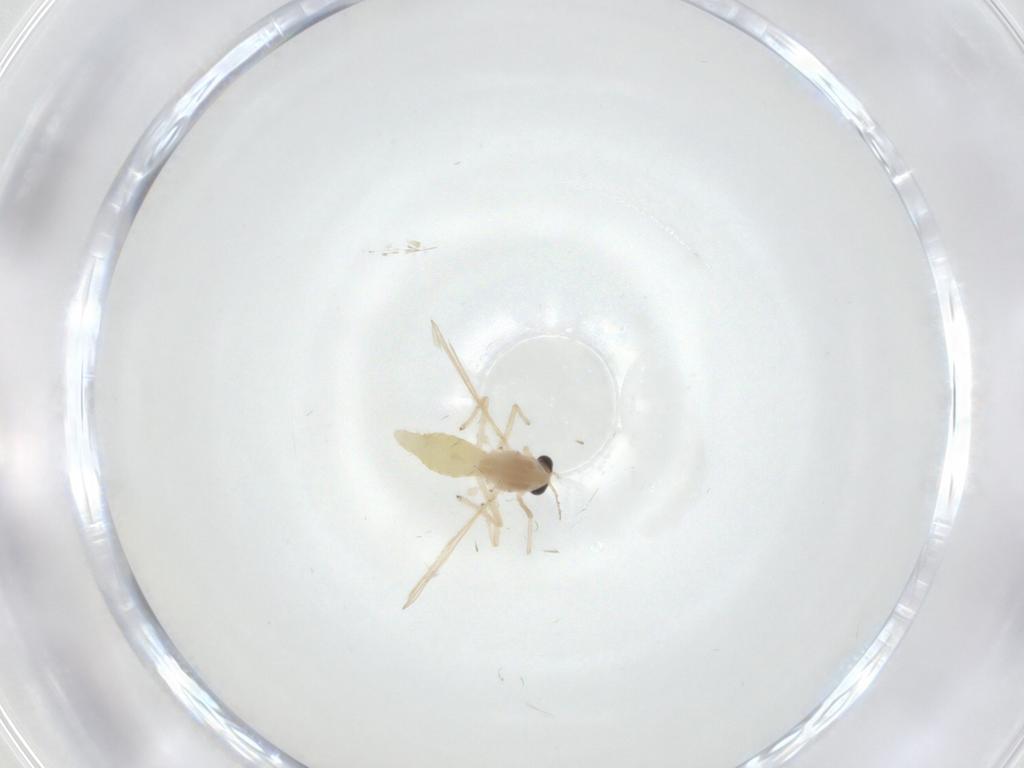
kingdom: Animalia
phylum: Arthropoda
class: Insecta
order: Diptera
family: Chironomidae
